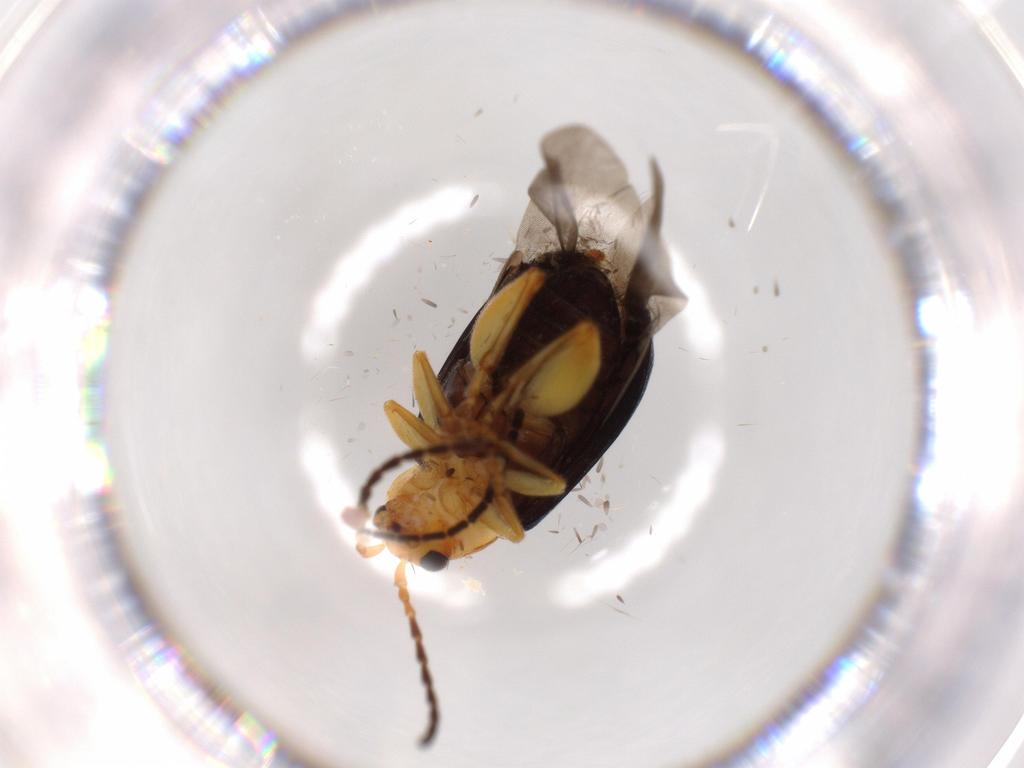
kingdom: Animalia
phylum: Arthropoda
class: Insecta
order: Coleoptera
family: Chrysomelidae
